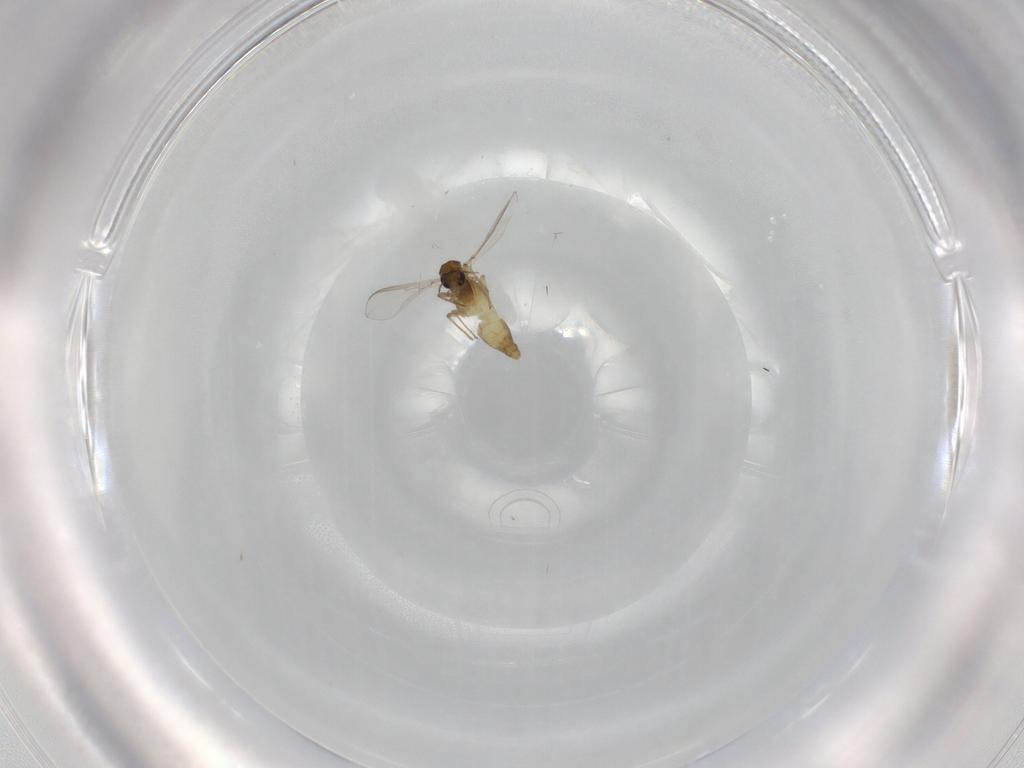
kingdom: Animalia
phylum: Arthropoda
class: Insecta
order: Diptera
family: Chironomidae
